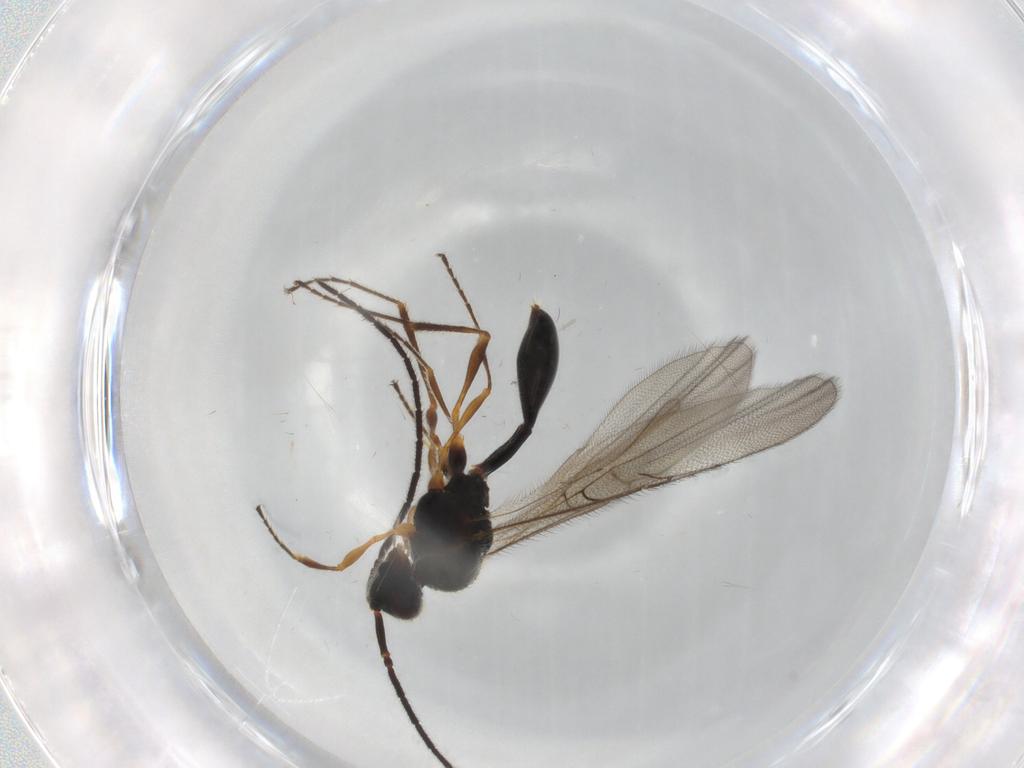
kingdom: Animalia
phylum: Arthropoda
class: Insecta
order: Hymenoptera
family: Diapriidae
